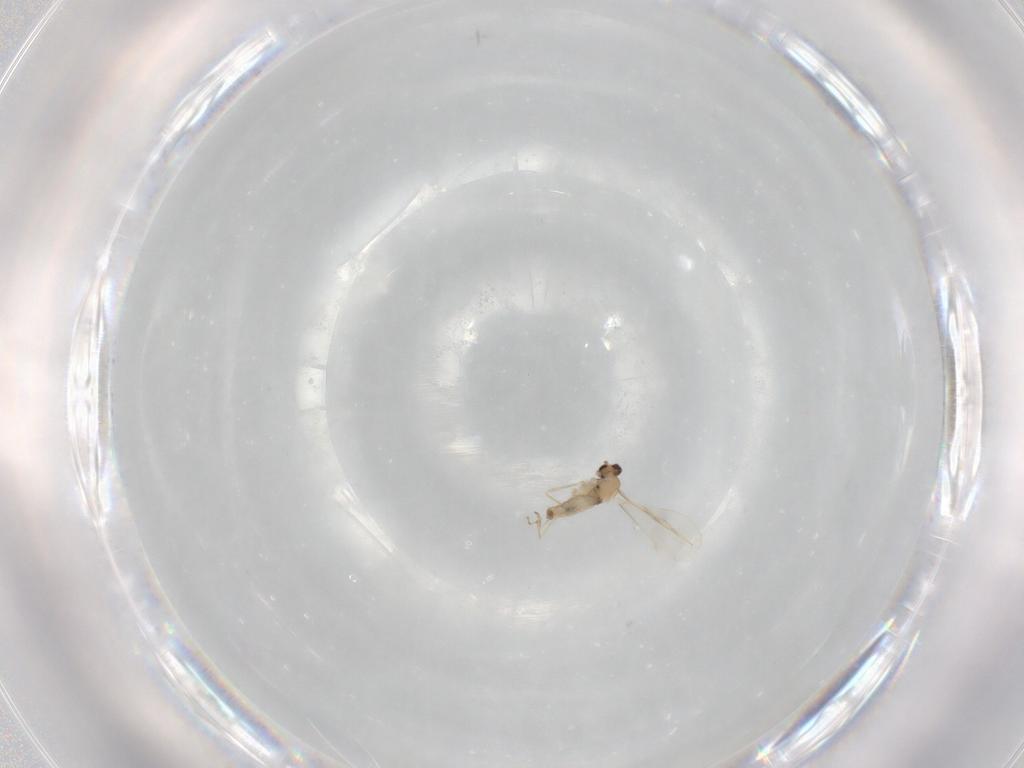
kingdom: Animalia
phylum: Arthropoda
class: Insecta
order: Diptera
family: Cecidomyiidae
